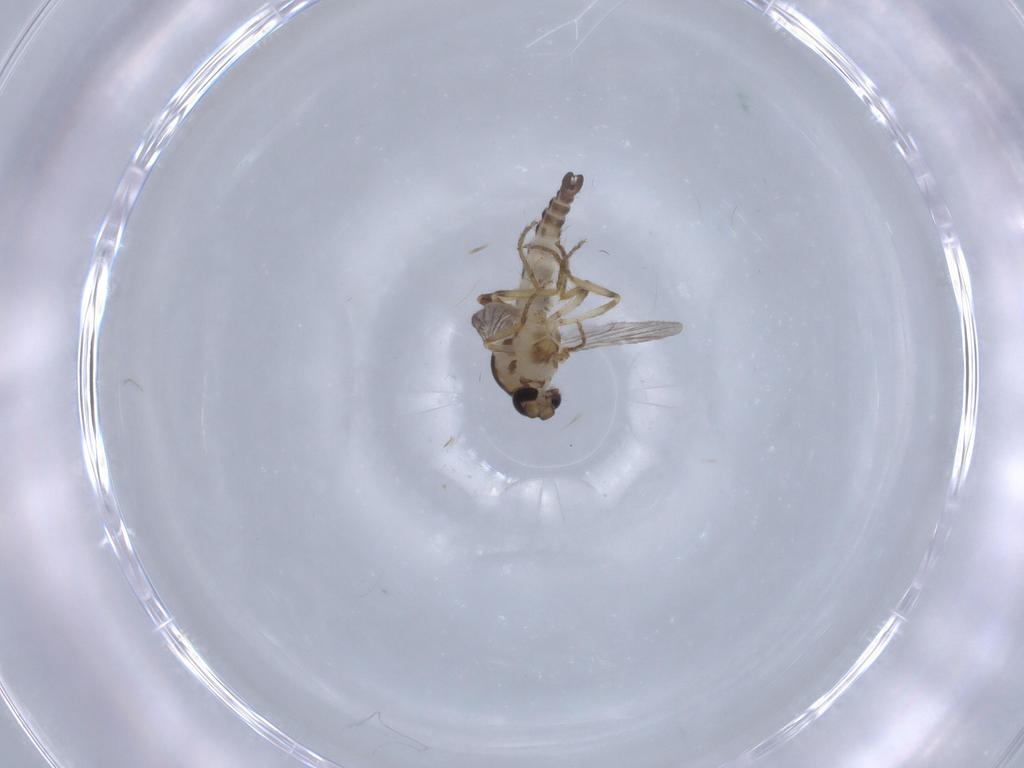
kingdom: Animalia
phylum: Arthropoda
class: Insecta
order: Diptera
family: Ceratopogonidae
